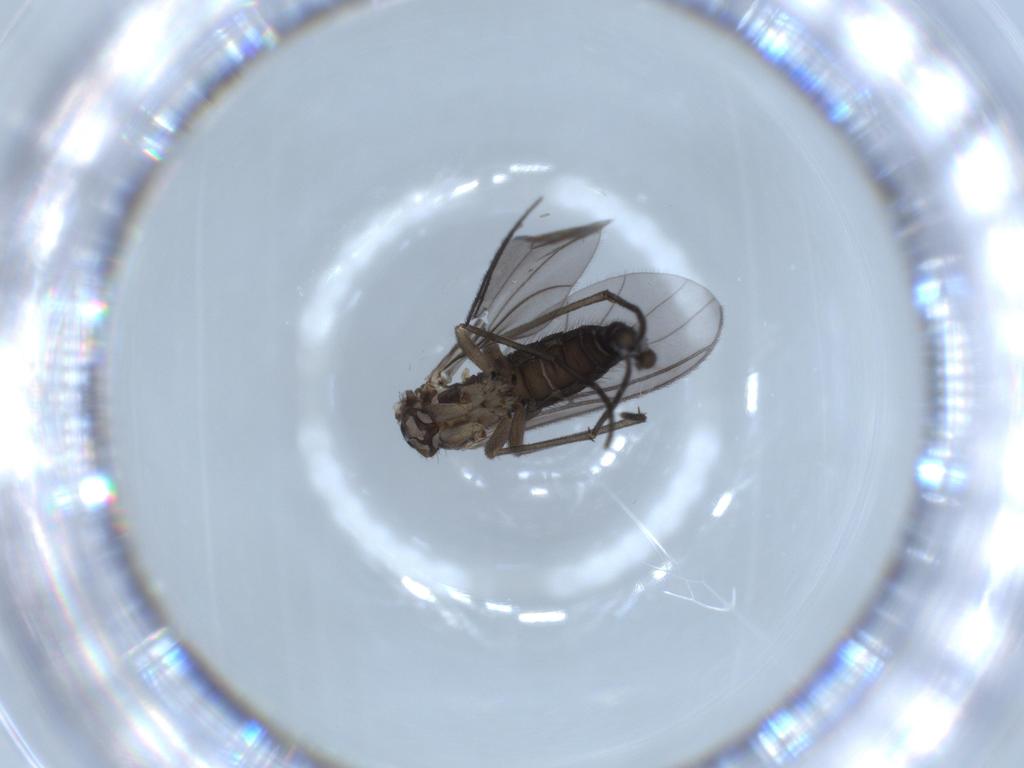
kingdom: Animalia
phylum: Arthropoda
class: Insecta
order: Diptera
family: Sciaridae
